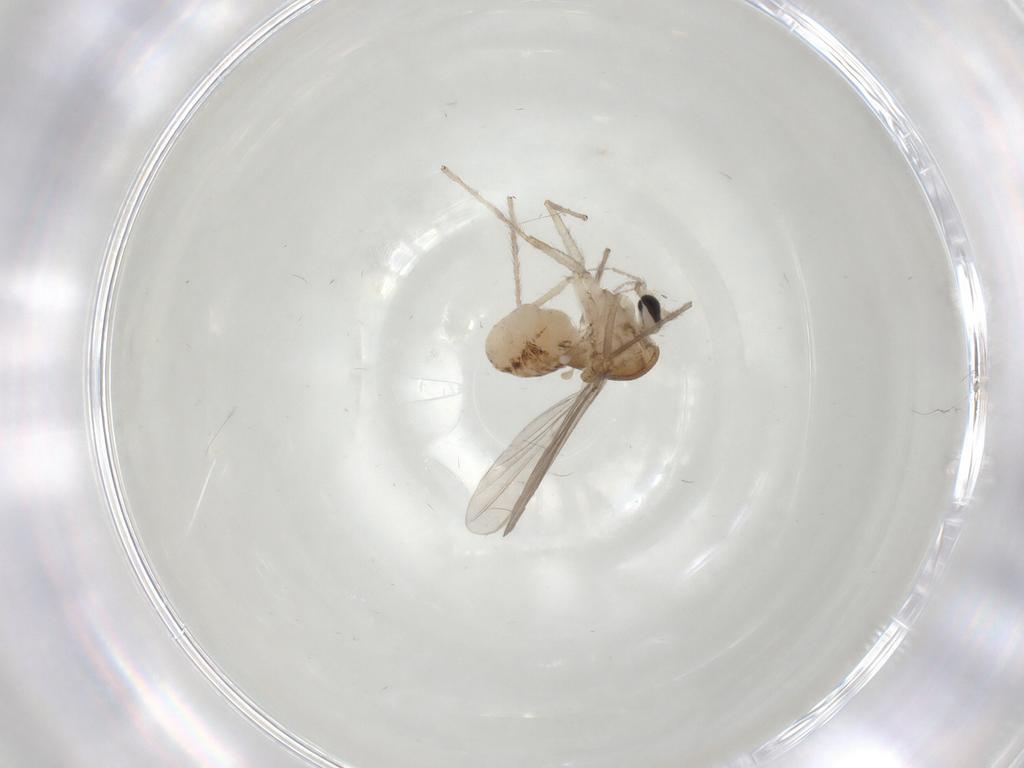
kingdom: Animalia
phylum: Arthropoda
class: Insecta
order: Diptera
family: Chironomidae
